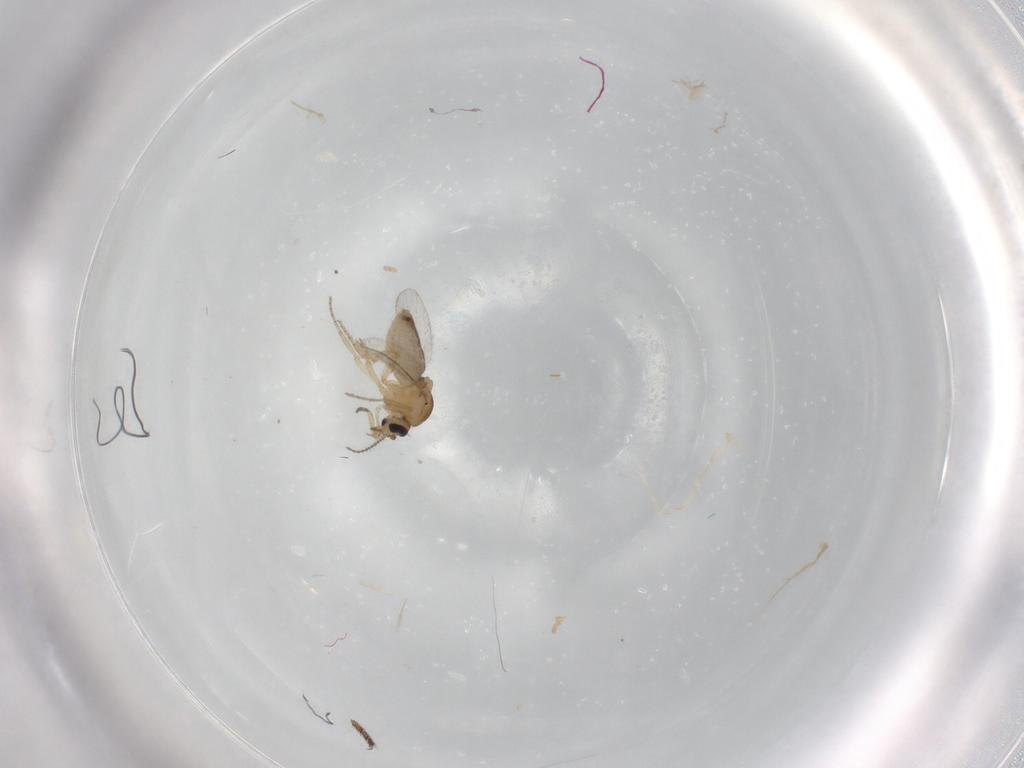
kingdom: Animalia
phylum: Arthropoda
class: Insecta
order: Diptera
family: Ceratopogonidae
